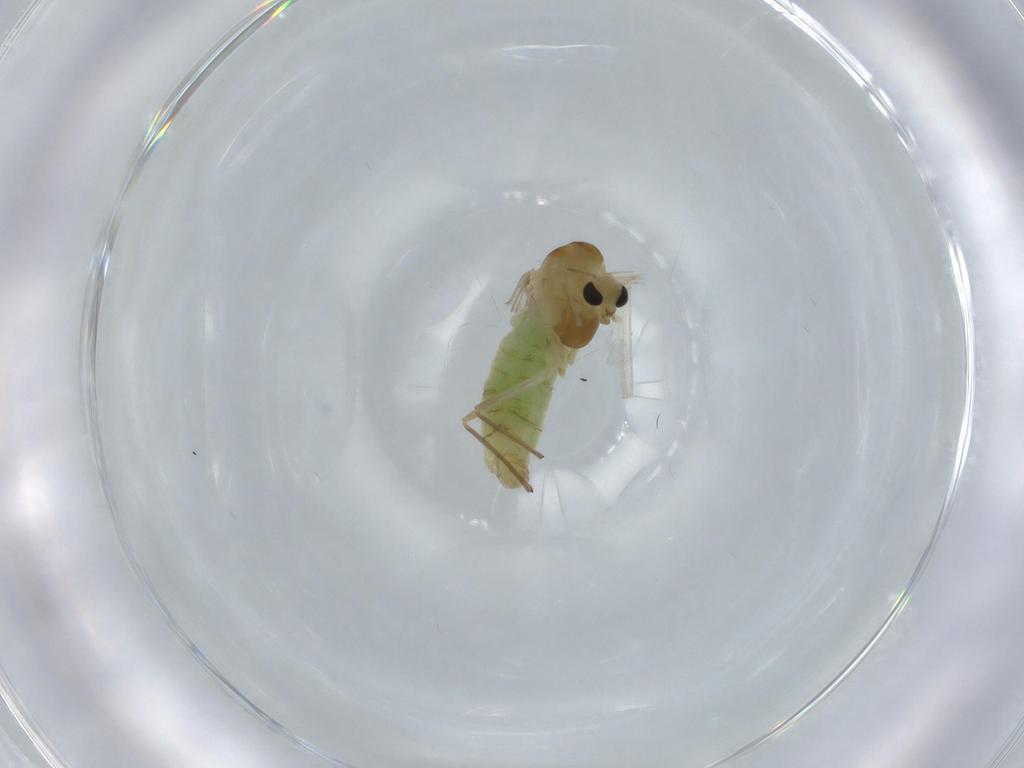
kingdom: Animalia
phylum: Arthropoda
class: Insecta
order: Diptera
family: Chironomidae
